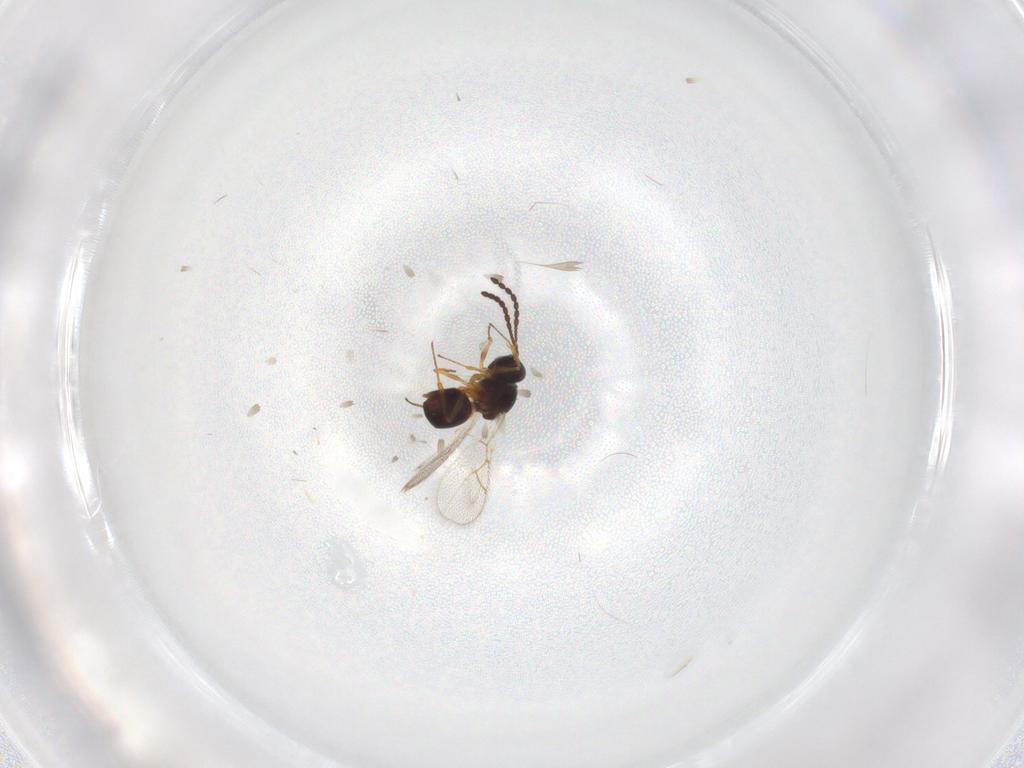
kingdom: Animalia
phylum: Arthropoda
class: Insecta
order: Hymenoptera
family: Figitidae
